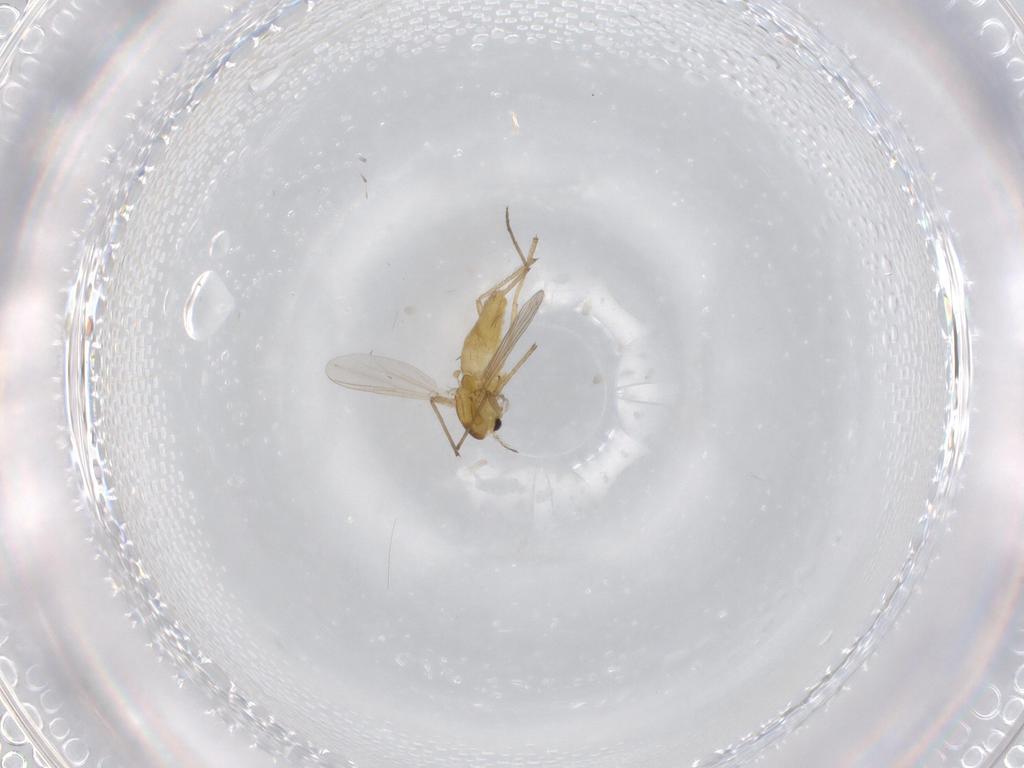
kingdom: Animalia
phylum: Arthropoda
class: Insecta
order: Diptera
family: Chironomidae
